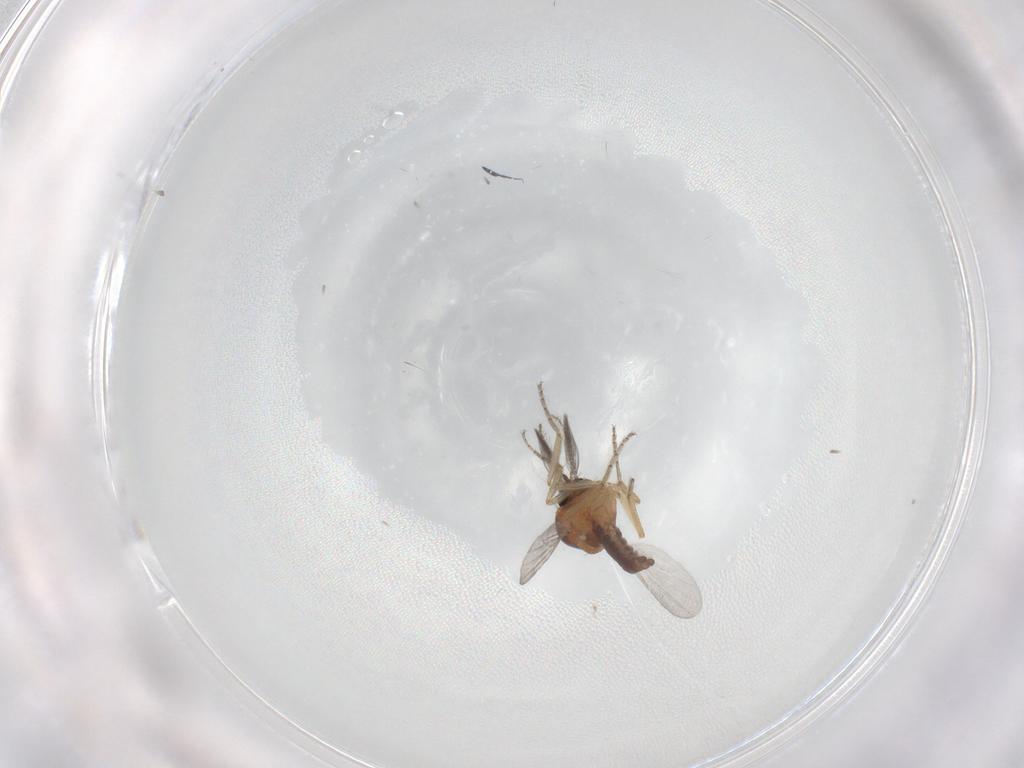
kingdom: Animalia
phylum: Arthropoda
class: Insecta
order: Diptera
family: Ceratopogonidae
